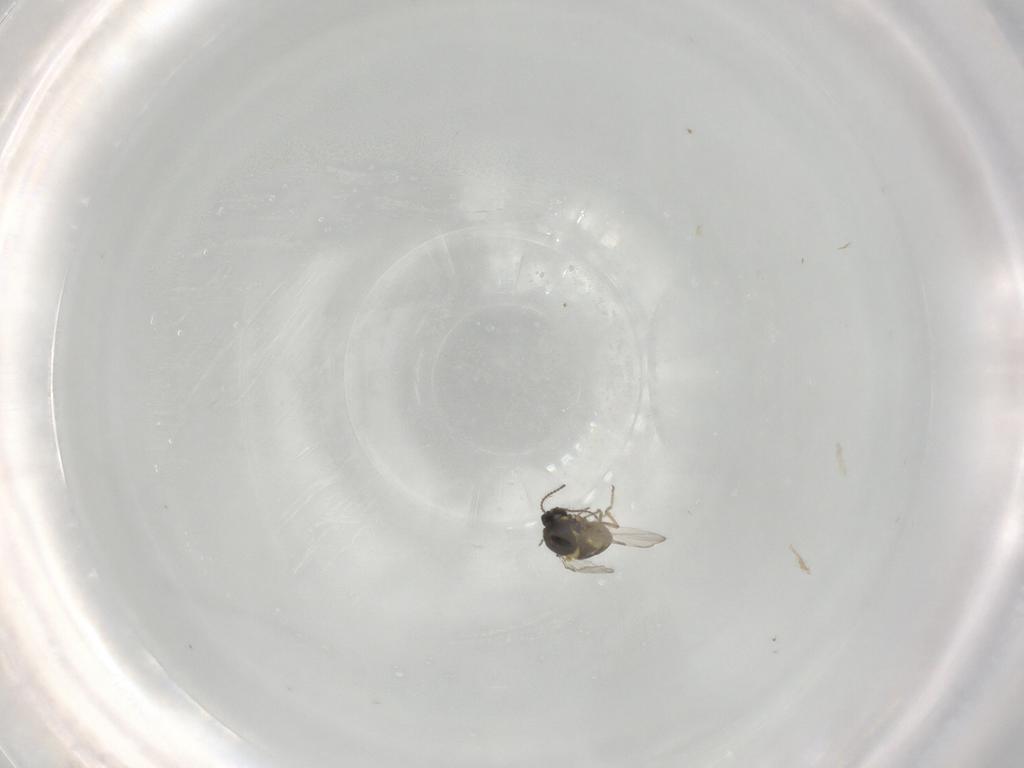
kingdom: Animalia
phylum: Arthropoda
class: Insecta
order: Diptera
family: Ceratopogonidae
